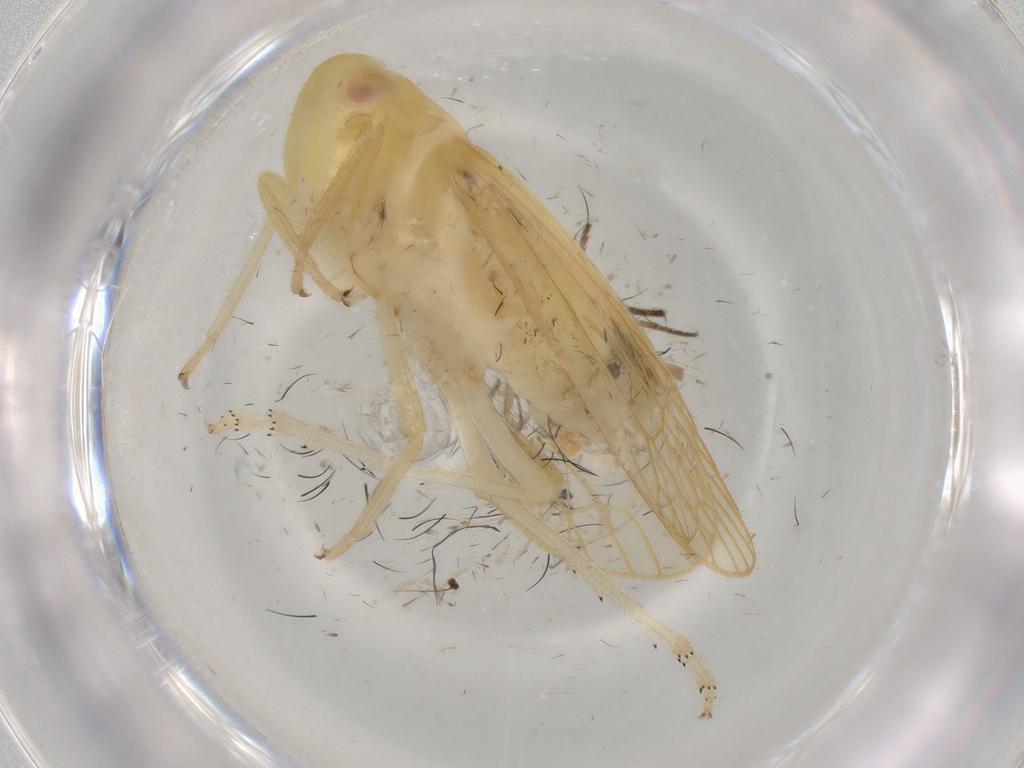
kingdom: Animalia
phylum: Arthropoda
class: Insecta
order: Hemiptera
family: Tropiduchidae
